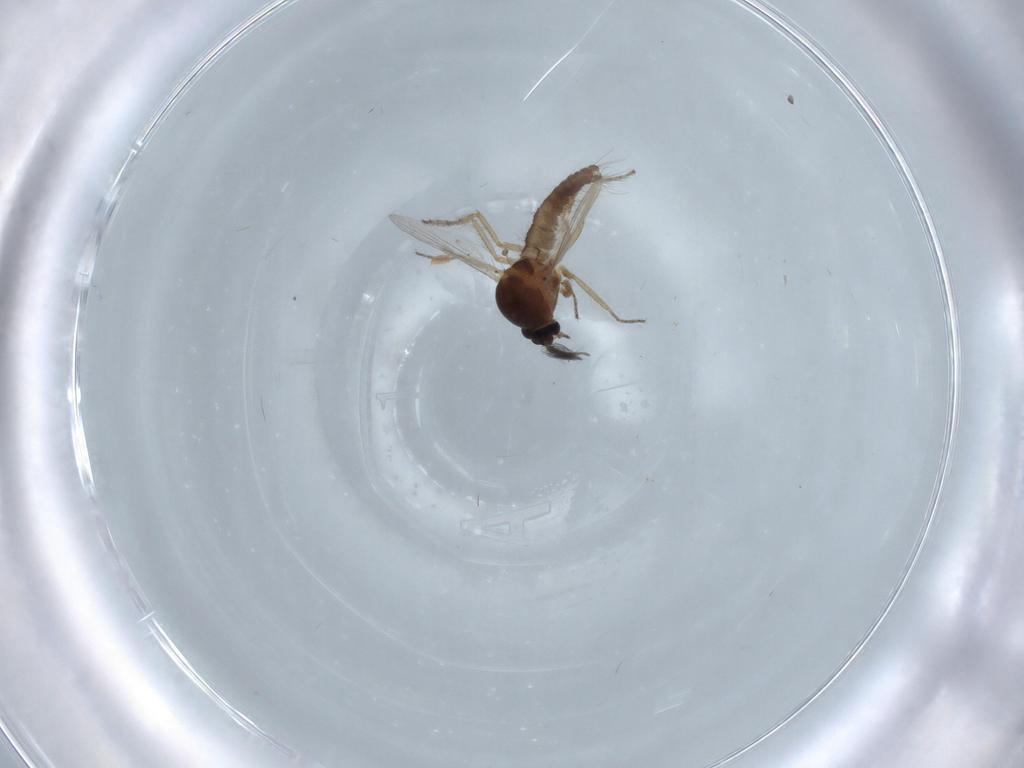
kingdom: Animalia
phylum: Arthropoda
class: Insecta
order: Diptera
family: Ceratopogonidae
